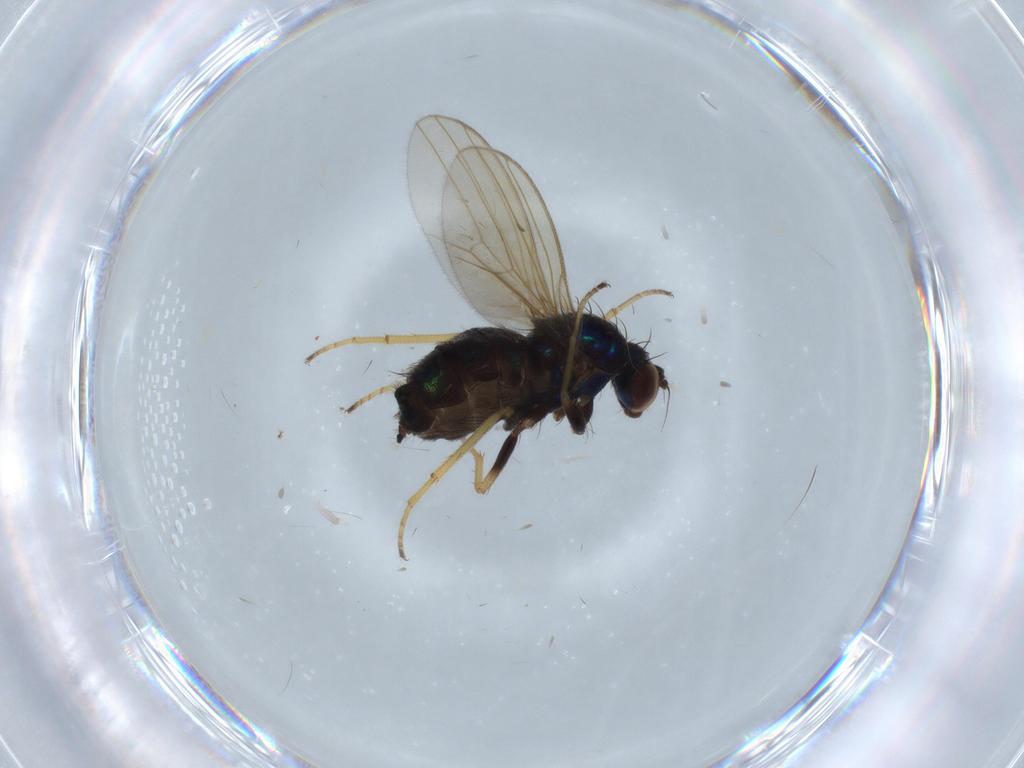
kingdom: Animalia
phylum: Arthropoda
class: Insecta
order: Diptera
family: Dolichopodidae
